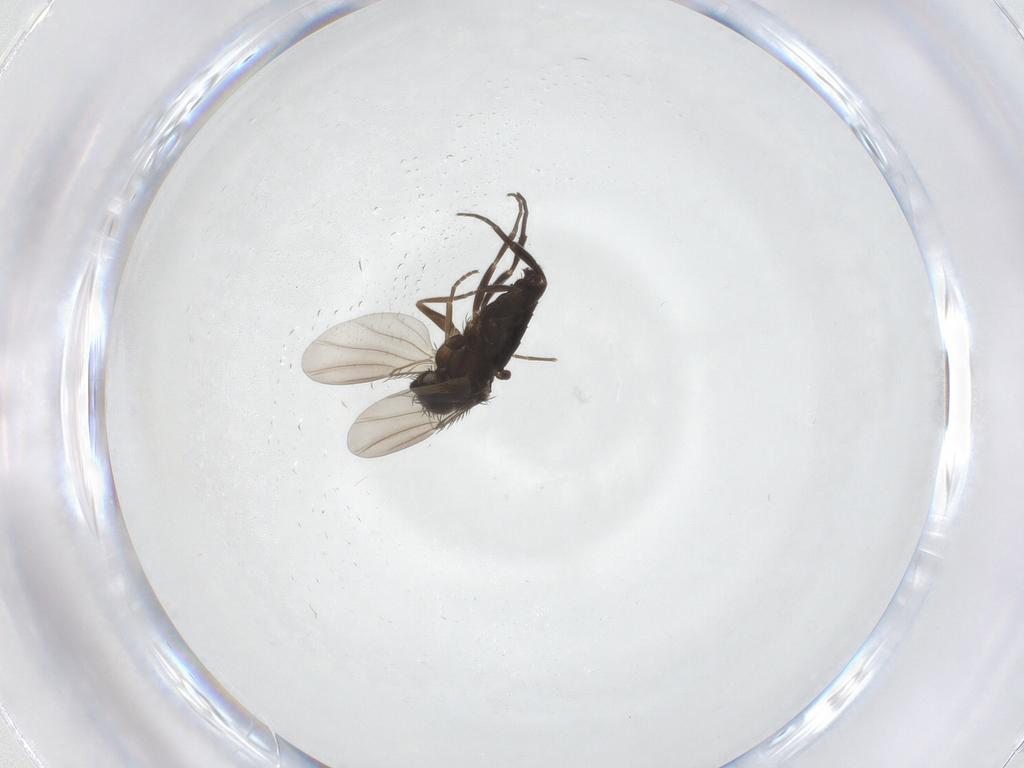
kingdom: Animalia
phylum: Arthropoda
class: Insecta
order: Diptera
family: Phoridae
